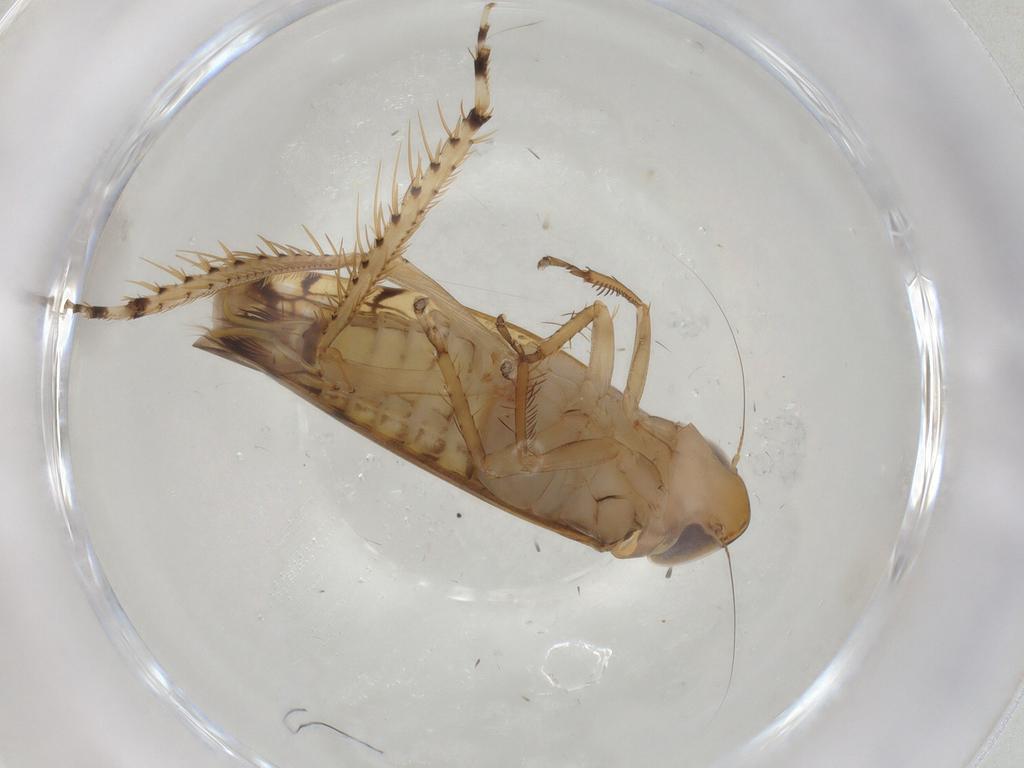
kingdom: Animalia
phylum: Arthropoda
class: Insecta
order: Hemiptera
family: Cicadellidae
